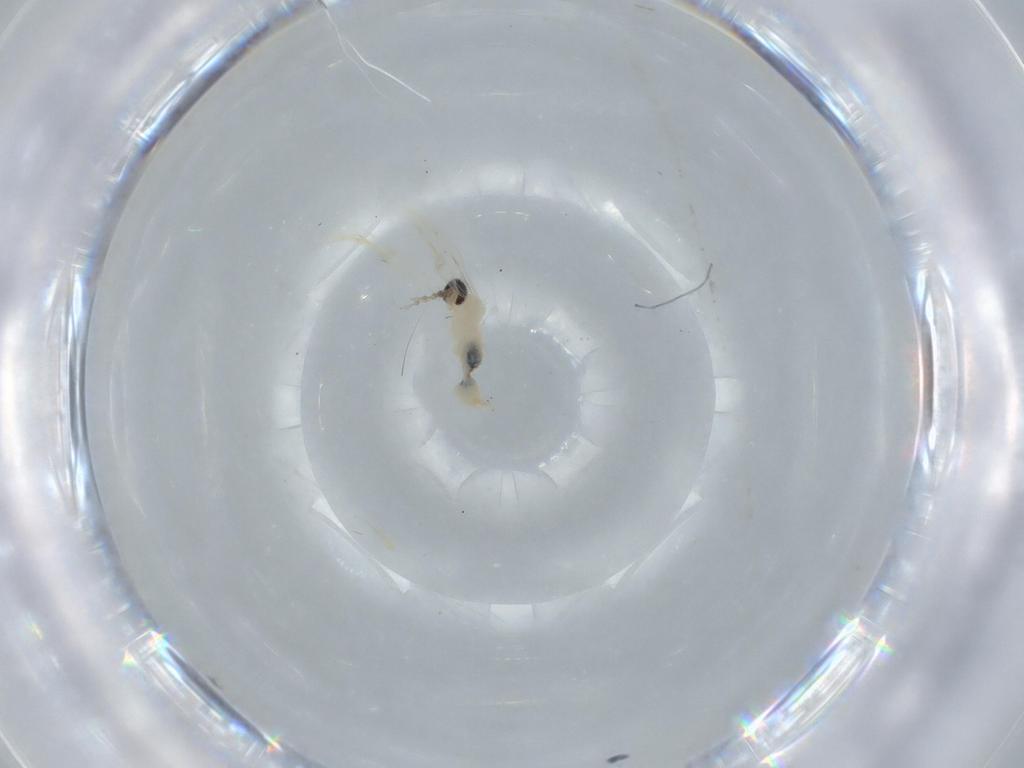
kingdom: Animalia
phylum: Arthropoda
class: Insecta
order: Diptera
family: Cecidomyiidae
